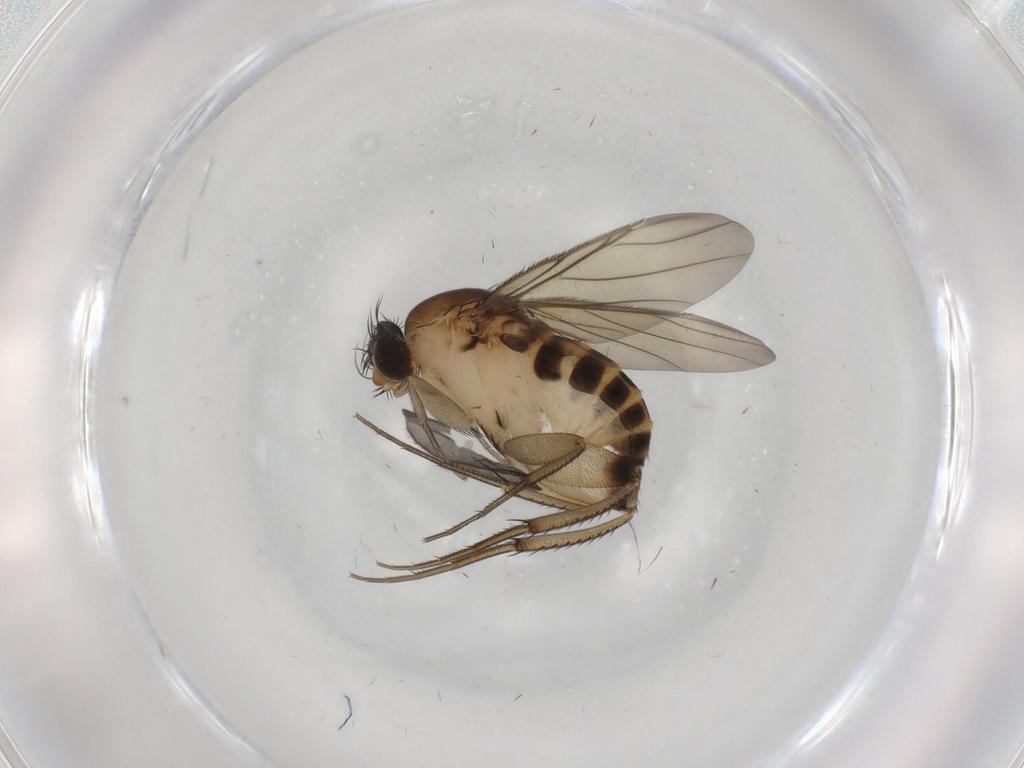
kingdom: Animalia
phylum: Arthropoda
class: Insecta
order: Diptera
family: Phoridae
